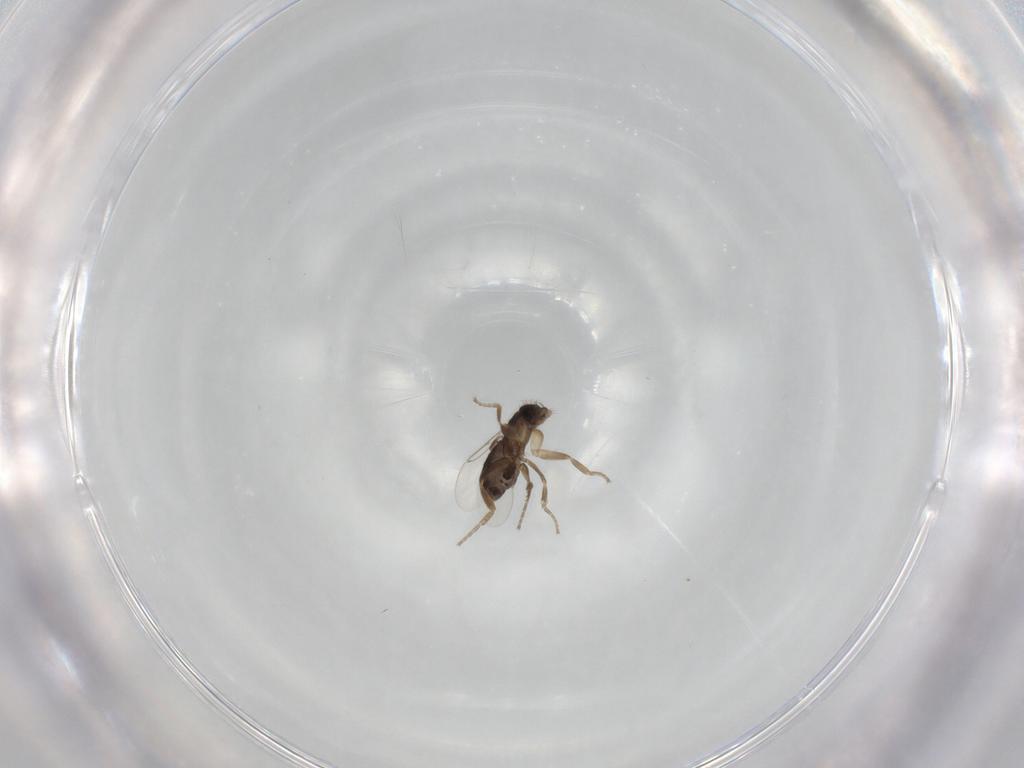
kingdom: Animalia
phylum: Arthropoda
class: Insecta
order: Diptera
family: Phoridae
